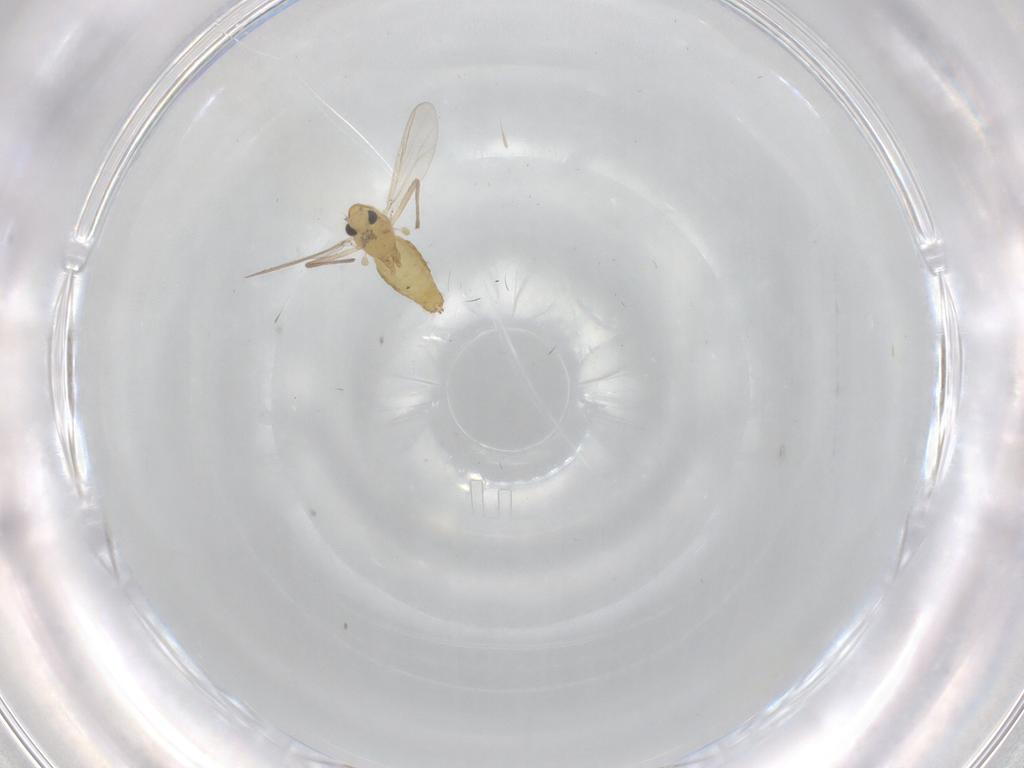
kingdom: Animalia
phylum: Arthropoda
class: Insecta
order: Diptera
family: Chironomidae
